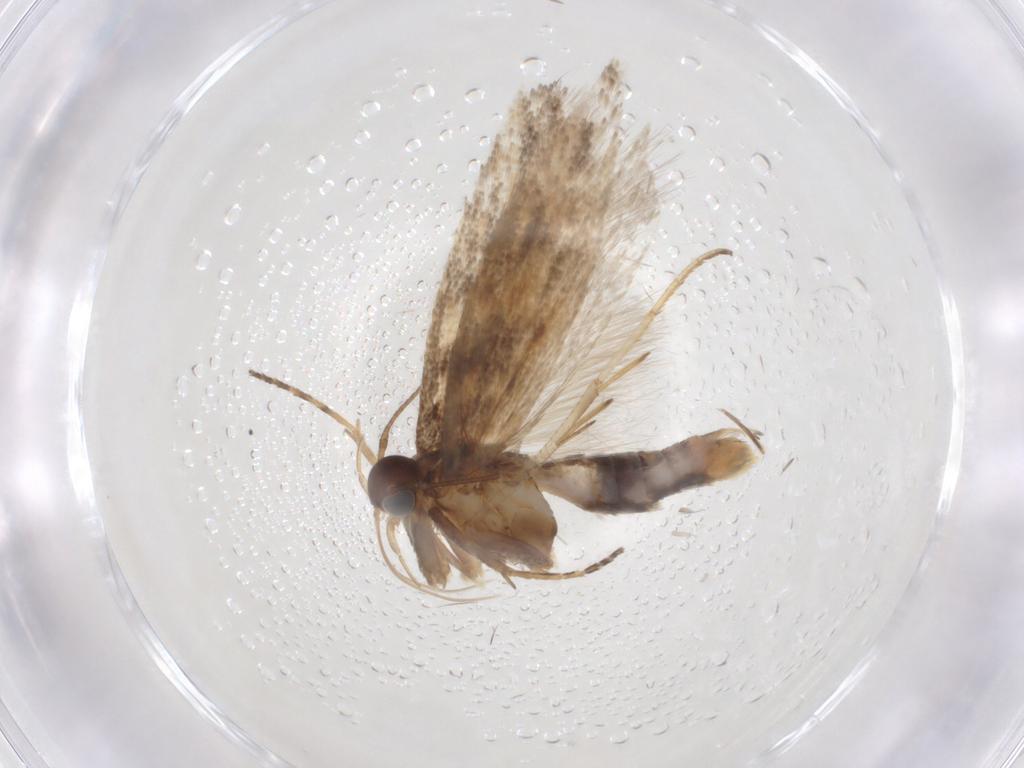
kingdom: Animalia
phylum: Arthropoda
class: Insecta
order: Lepidoptera
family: Gelechiidae
